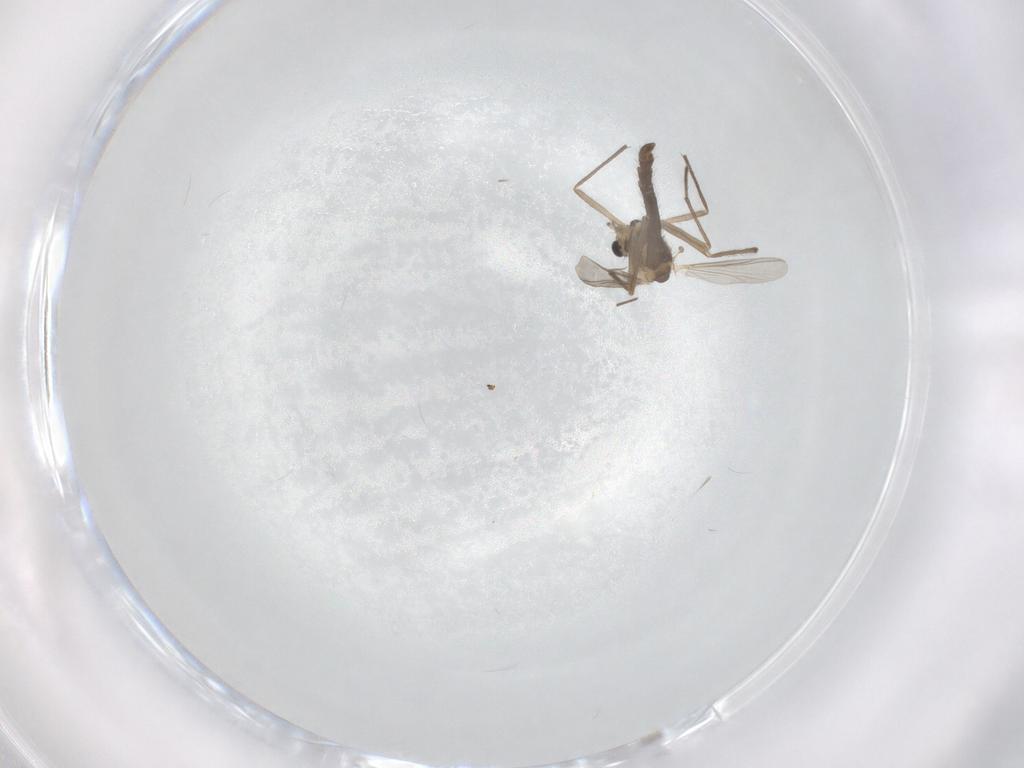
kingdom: Animalia
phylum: Arthropoda
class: Insecta
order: Diptera
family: Chironomidae
